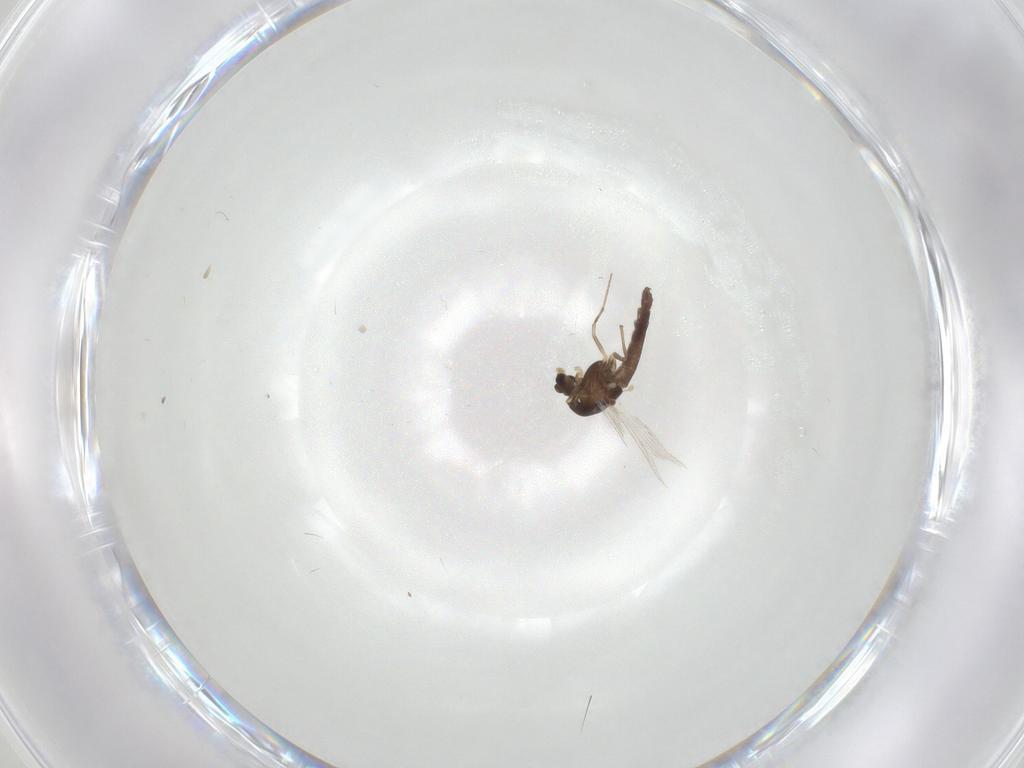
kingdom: Animalia
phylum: Arthropoda
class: Insecta
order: Diptera
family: Chironomidae
